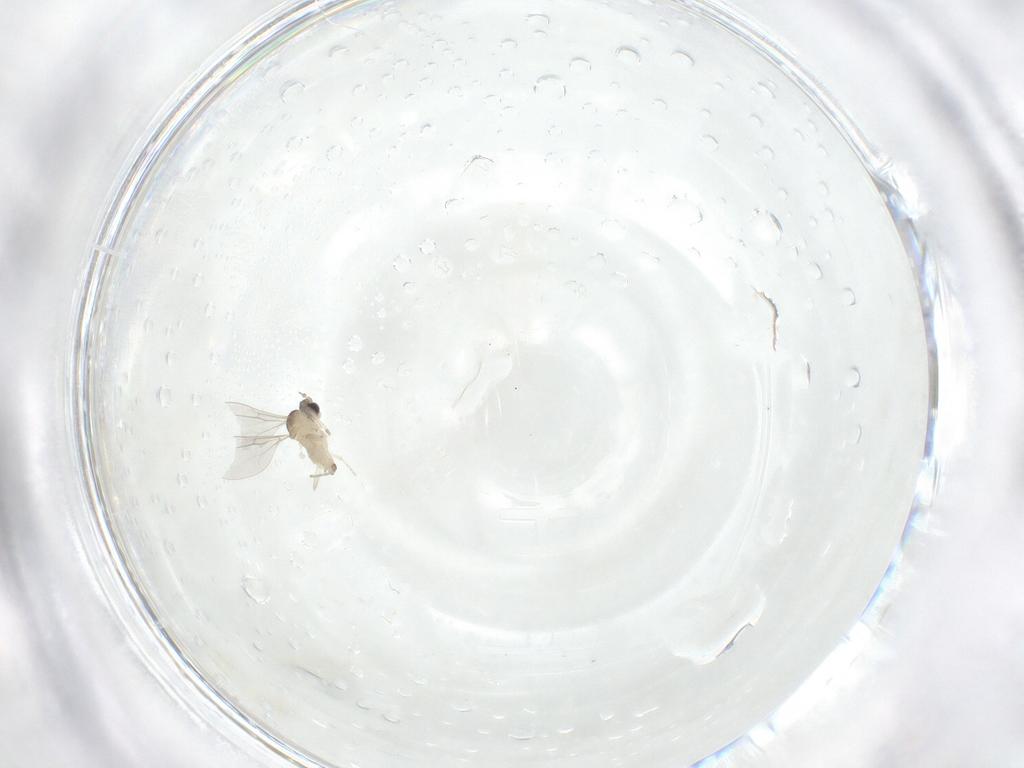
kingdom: Animalia
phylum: Arthropoda
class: Insecta
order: Diptera
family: Cecidomyiidae
